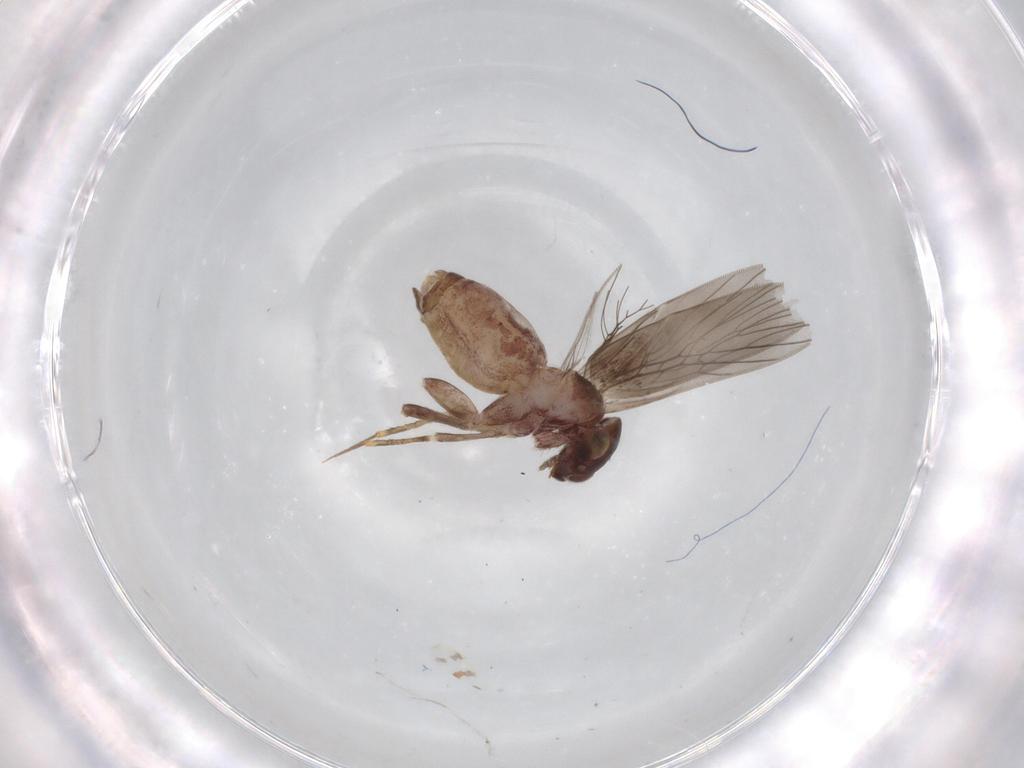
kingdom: Animalia
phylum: Arthropoda
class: Insecta
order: Psocodea
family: Lepidopsocidae
